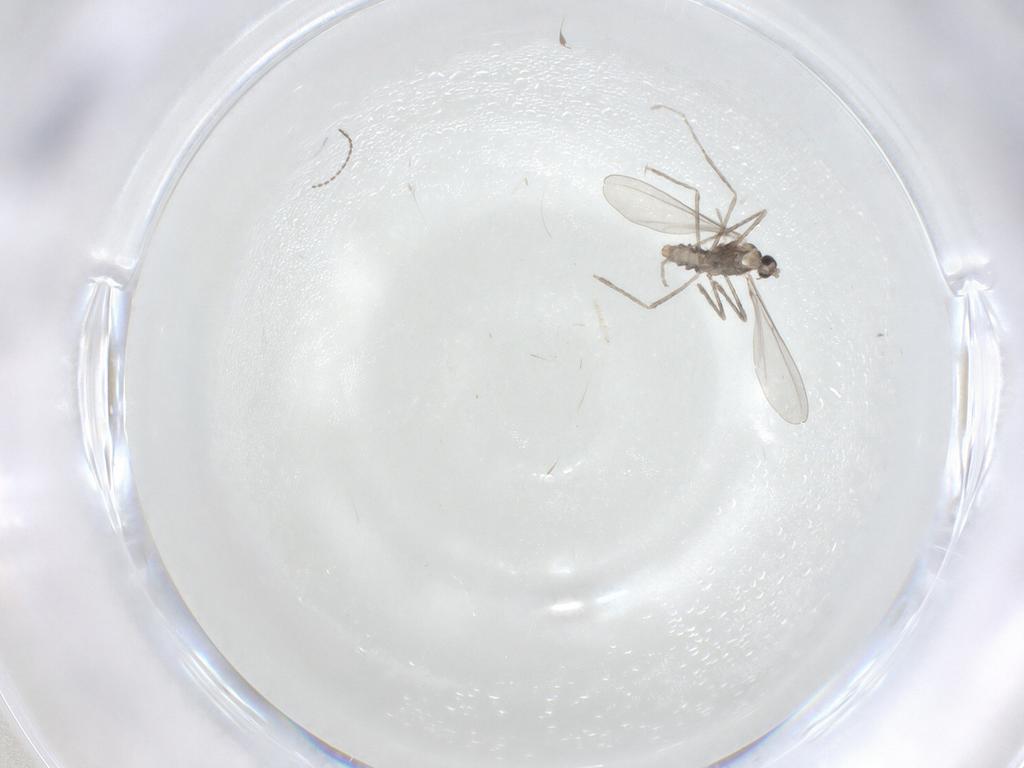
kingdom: Animalia
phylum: Arthropoda
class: Insecta
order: Diptera
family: Cecidomyiidae
